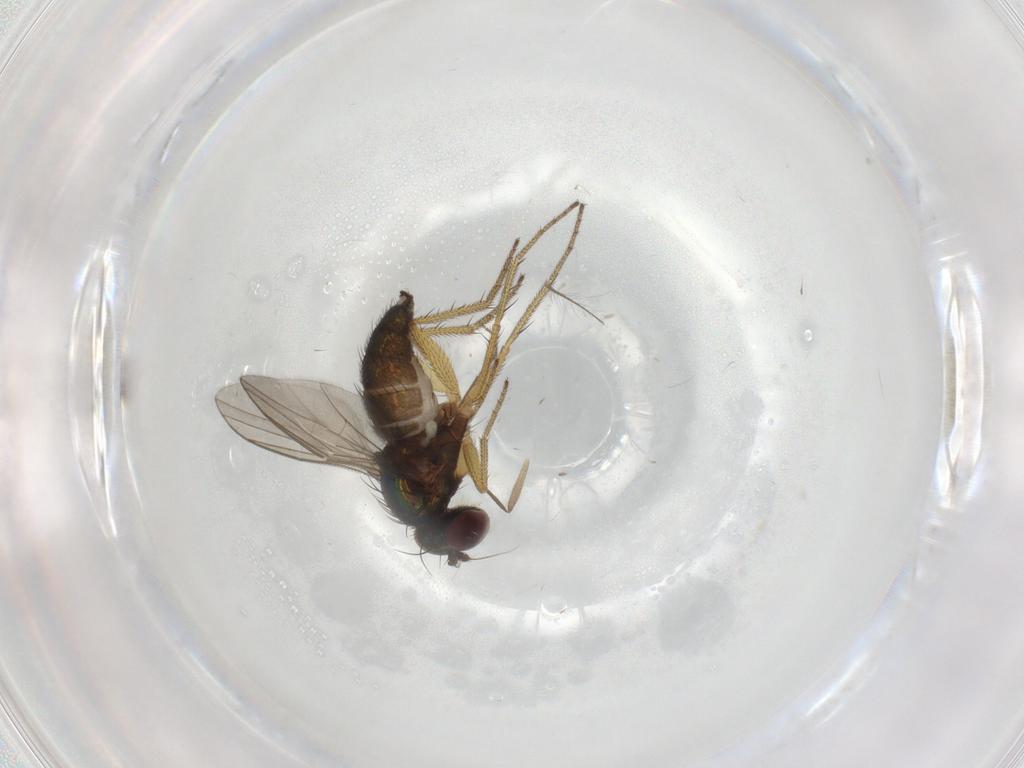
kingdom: Animalia
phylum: Arthropoda
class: Insecta
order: Diptera
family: Chironomidae
